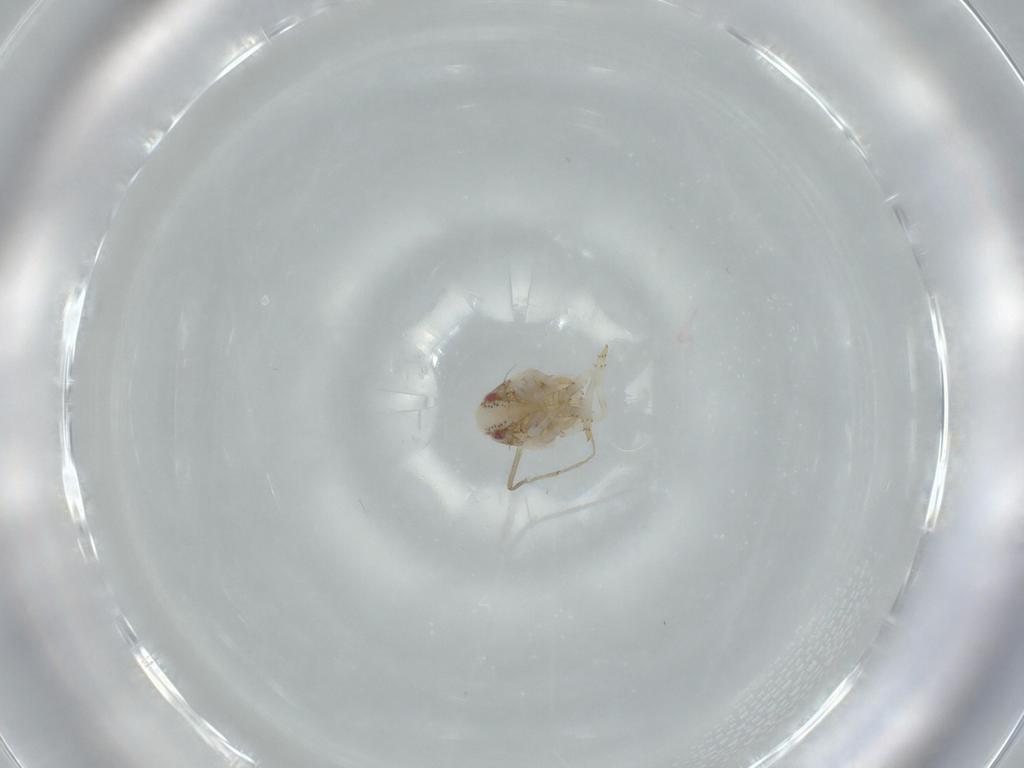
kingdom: Animalia
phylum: Arthropoda
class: Insecta
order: Hemiptera
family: Acanaloniidae
